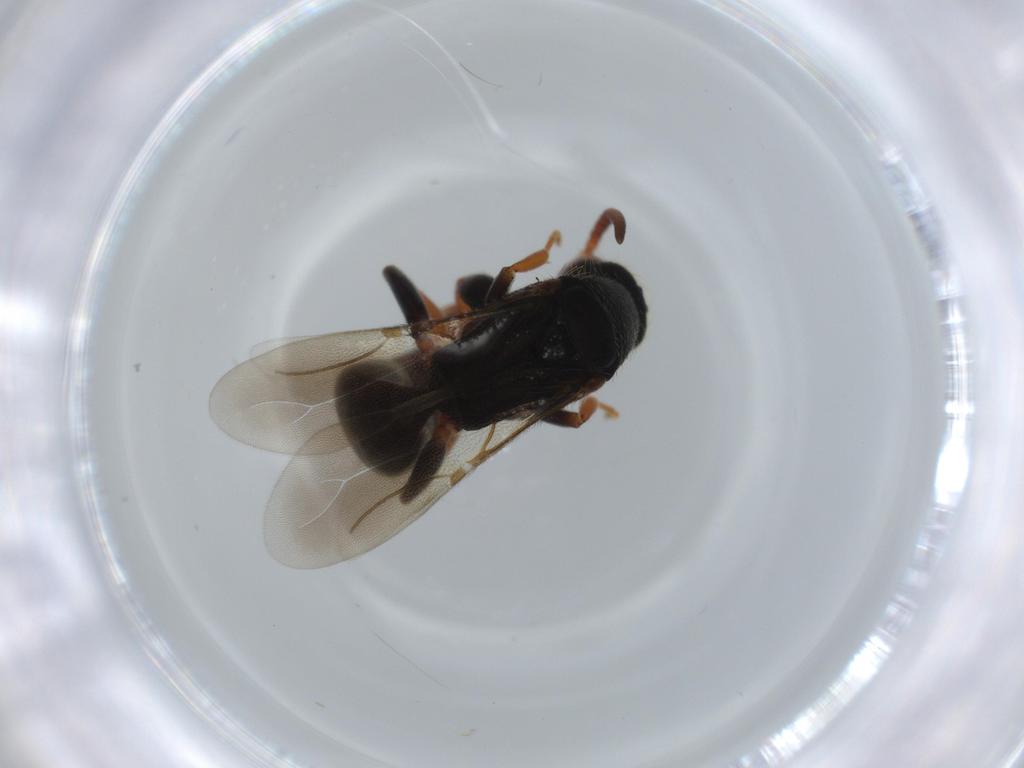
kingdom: Animalia
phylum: Arthropoda
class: Insecta
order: Hymenoptera
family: Bethylidae
